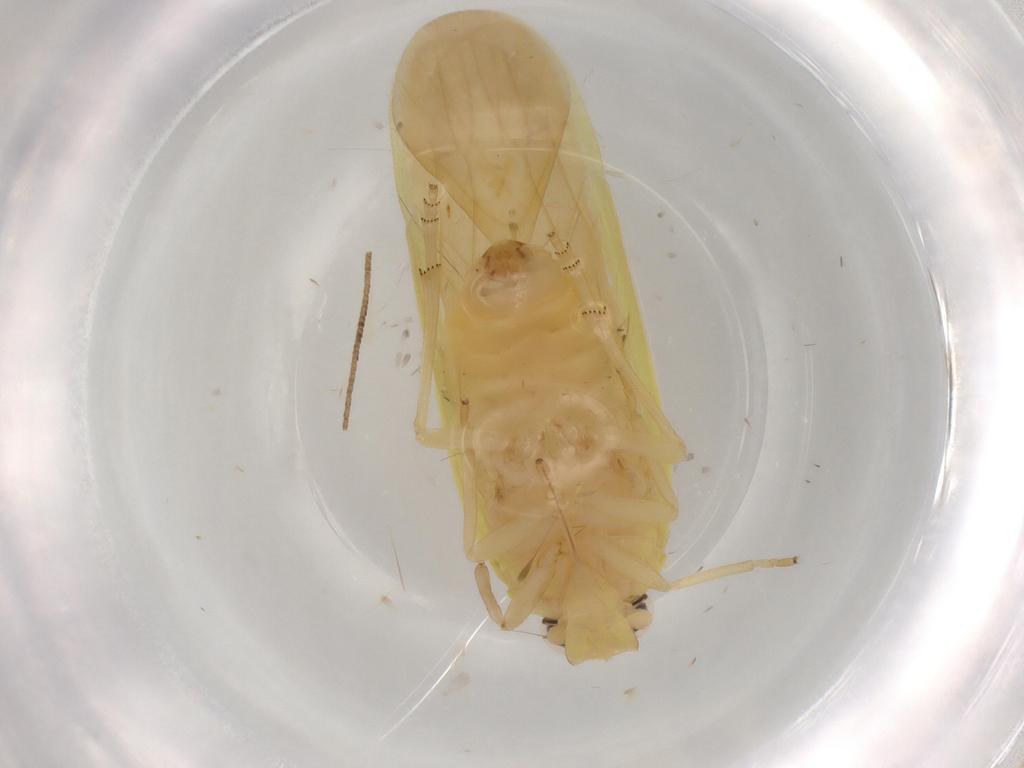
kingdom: Animalia
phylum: Arthropoda
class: Insecta
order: Hemiptera
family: Achilidae
